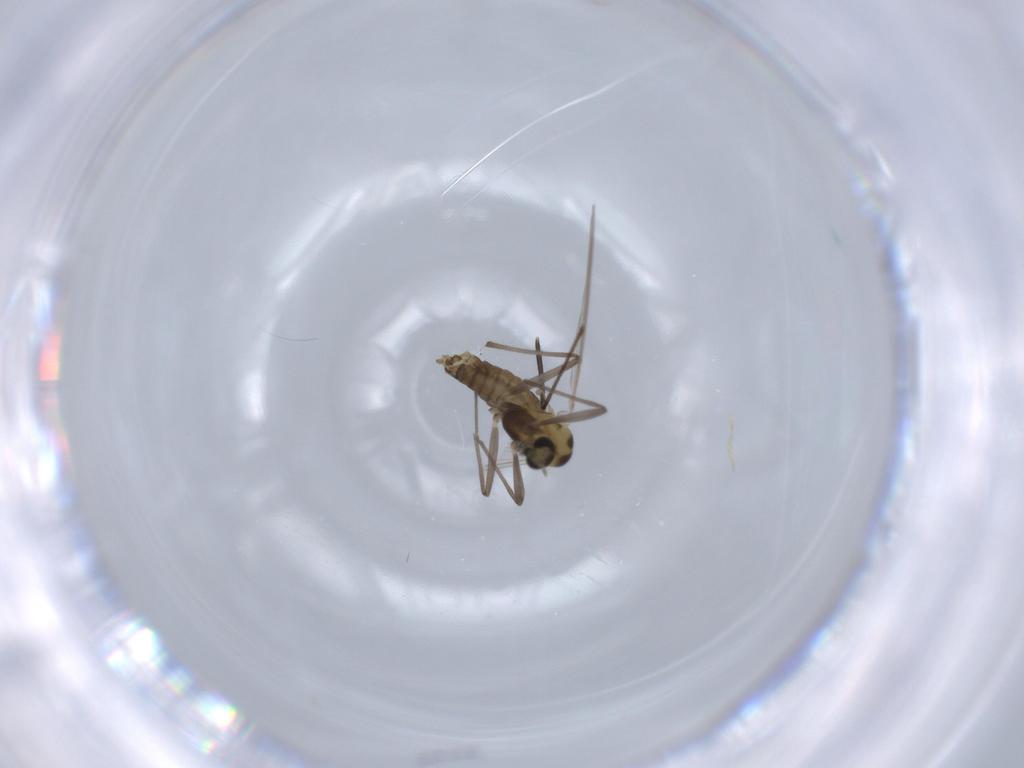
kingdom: Animalia
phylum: Arthropoda
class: Insecta
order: Diptera
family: Chironomidae
